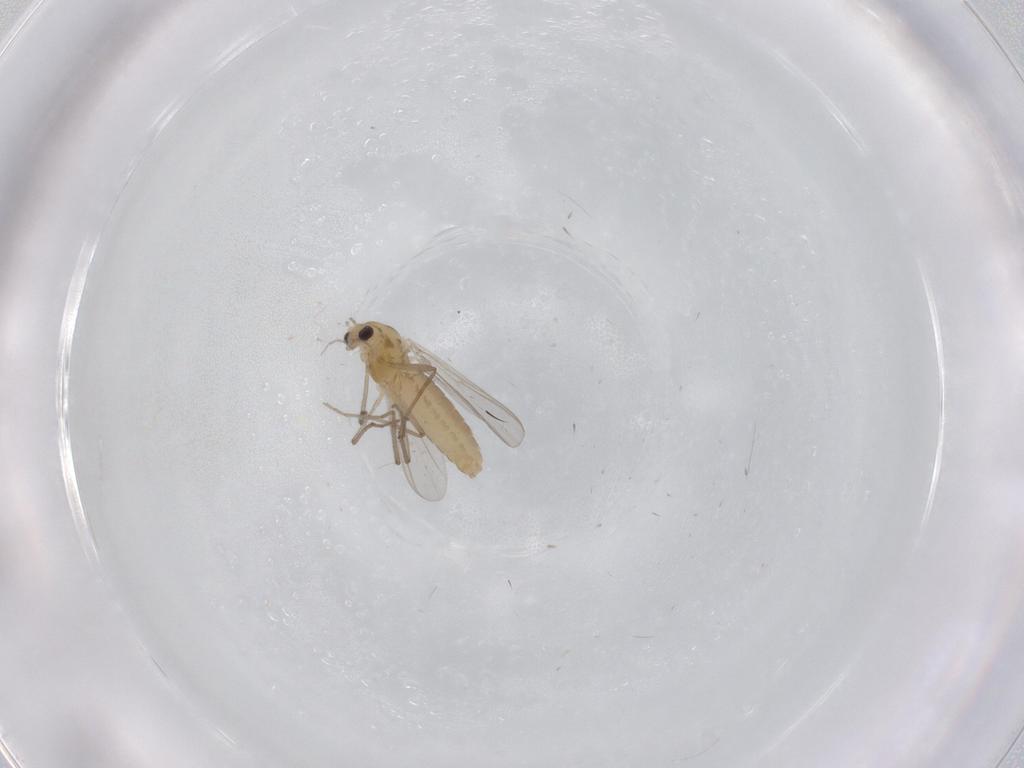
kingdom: Animalia
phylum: Arthropoda
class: Insecta
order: Diptera
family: Chironomidae
